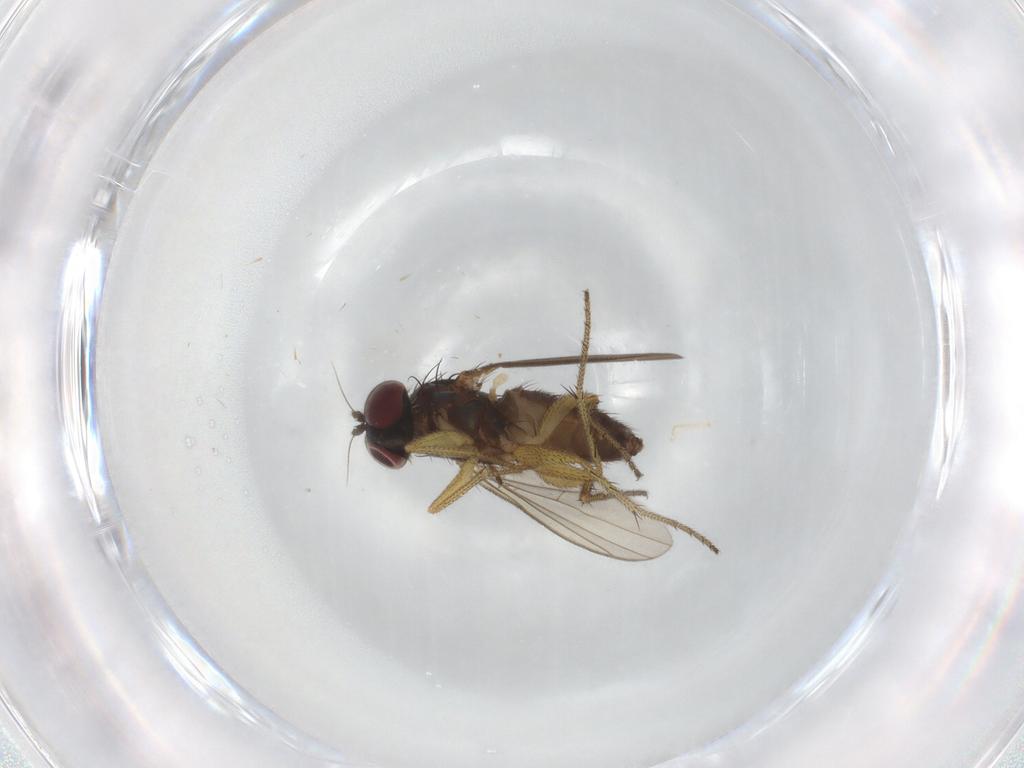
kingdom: Animalia
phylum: Arthropoda
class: Insecta
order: Diptera
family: Dolichopodidae
